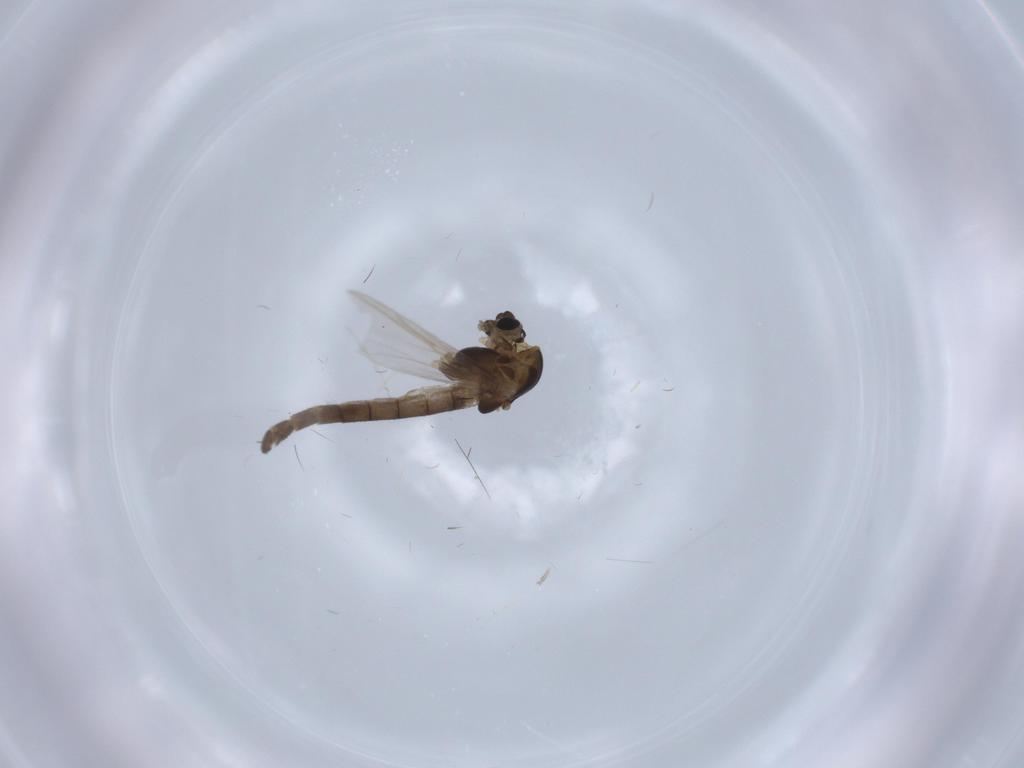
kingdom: Animalia
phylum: Arthropoda
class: Insecta
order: Diptera
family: Chironomidae
